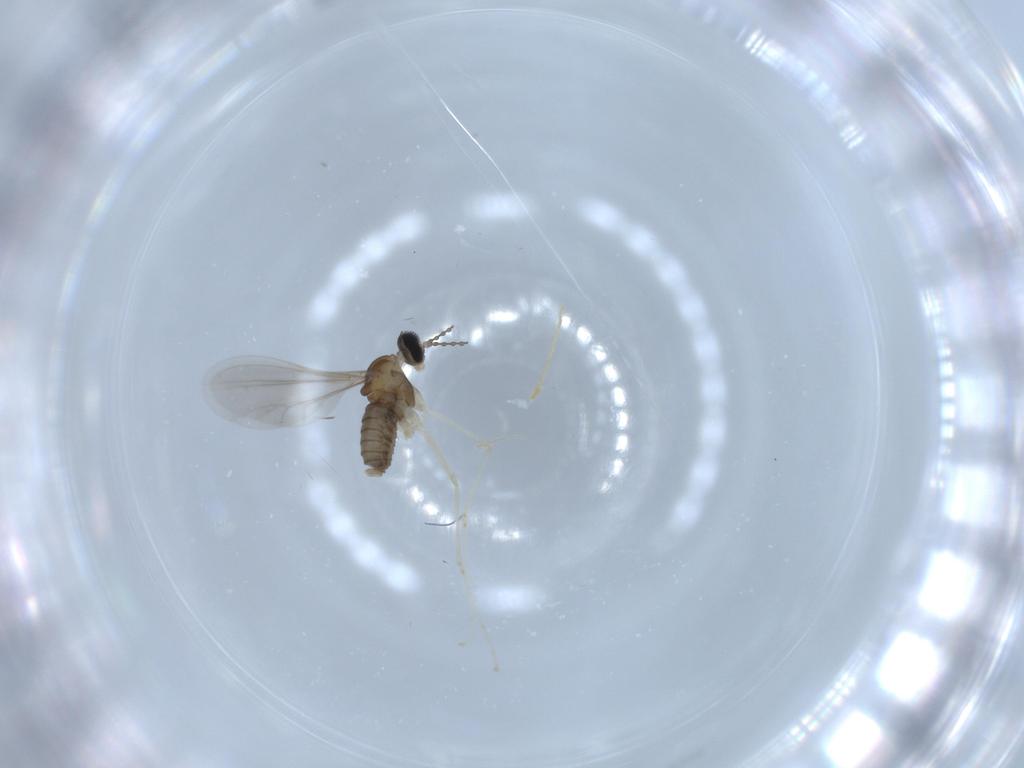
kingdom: Animalia
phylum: Arthropoda
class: Insecta
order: Diptera
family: Cecidomyiidae
